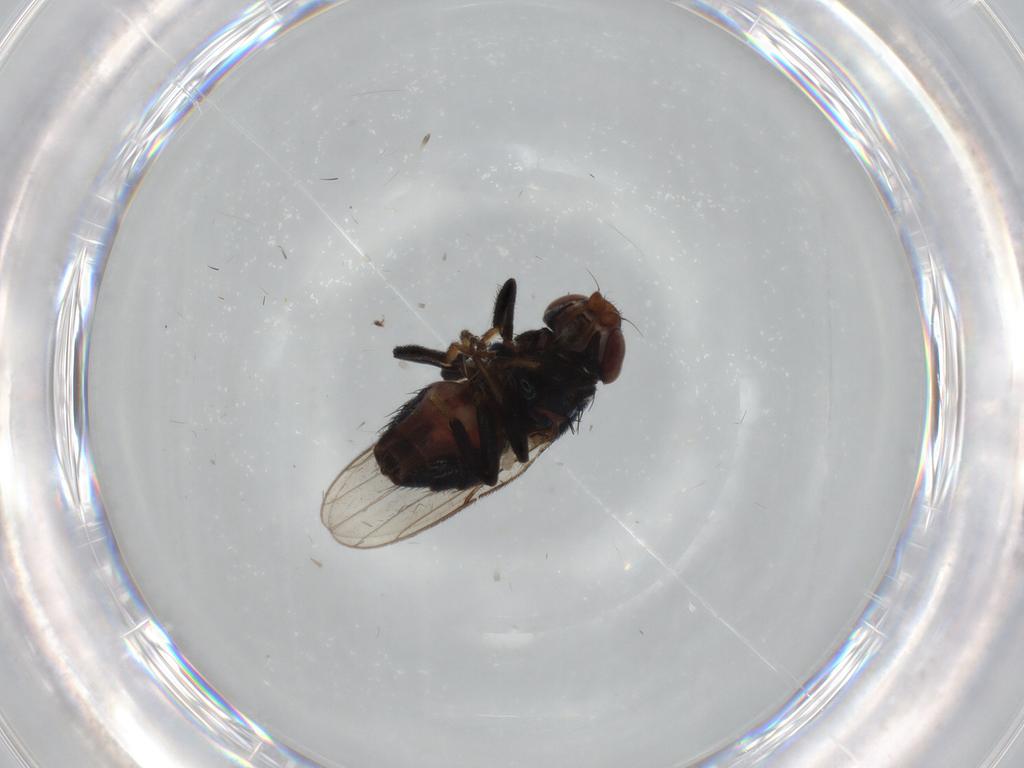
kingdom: Animalia
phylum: Arthropoda
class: Insecta
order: Diptera
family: Chloropidae
